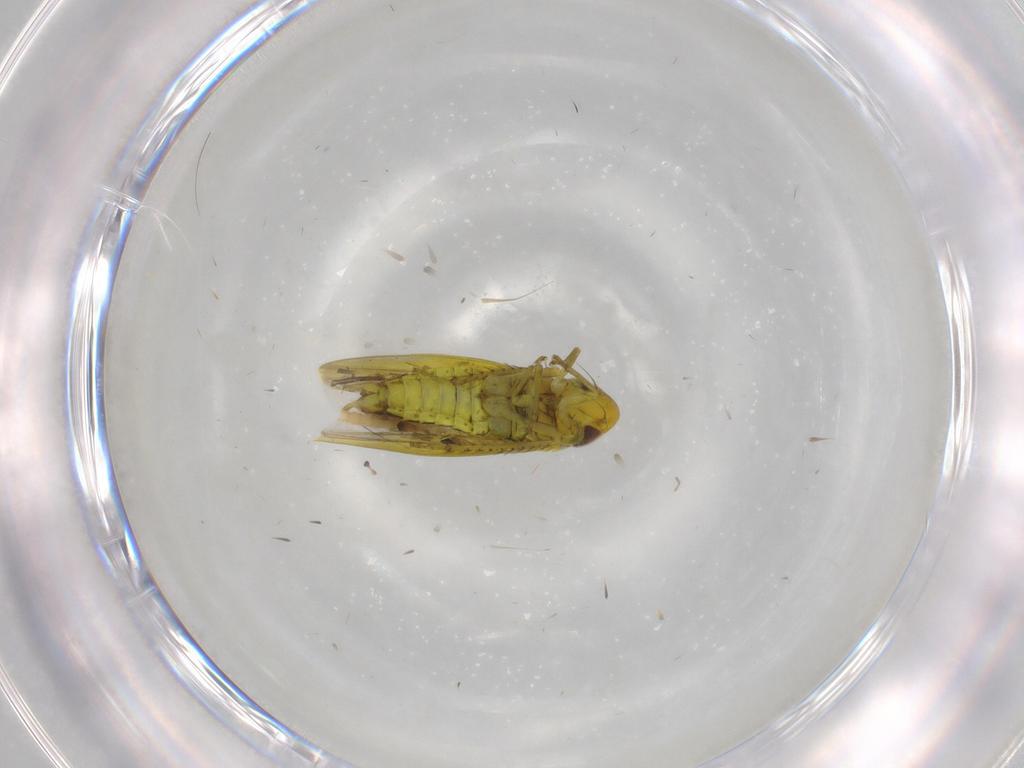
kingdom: Animalia
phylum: Arthropoda
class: Insecta
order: Hemiptera
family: Cicadellidae
